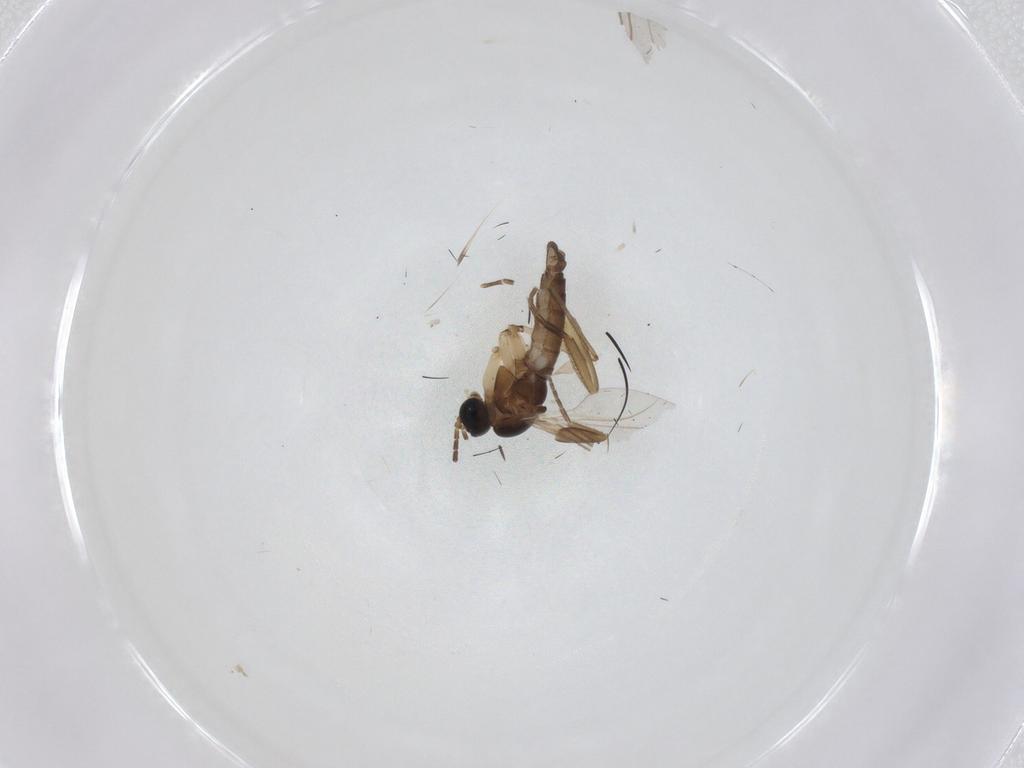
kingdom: Animalia
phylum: Arthropoda
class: Insecta
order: Diptera
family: Sciaridae
